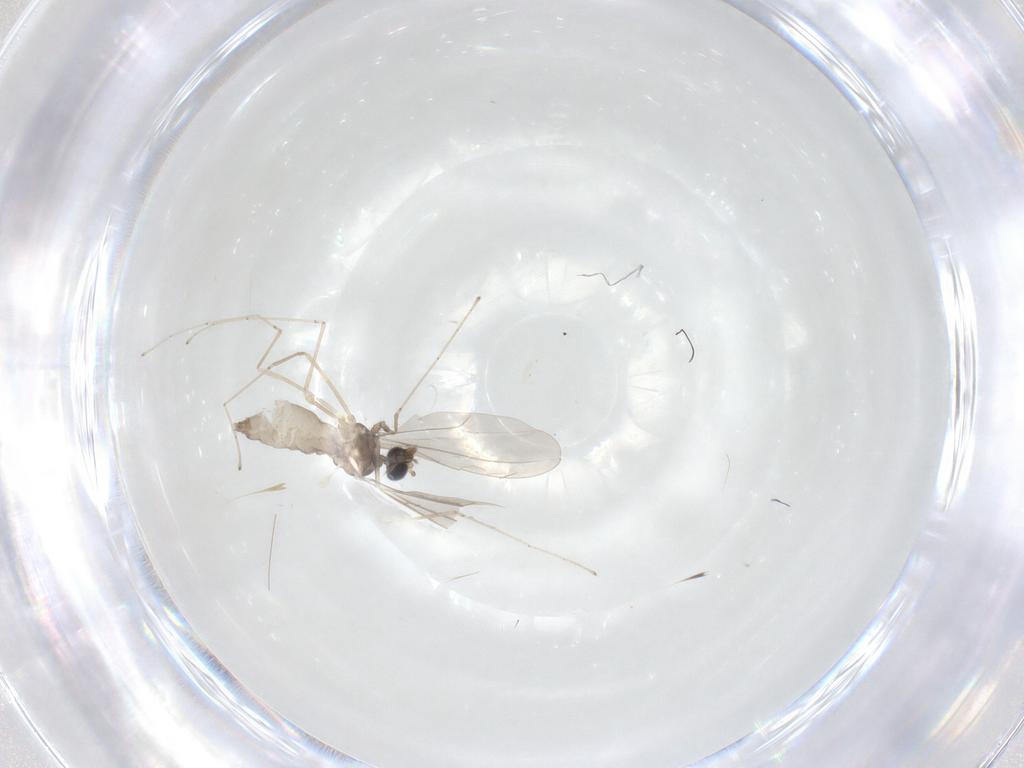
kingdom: Animalia
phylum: Arthropoda
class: Insecta
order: Diptera
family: Cecidomyiidae
